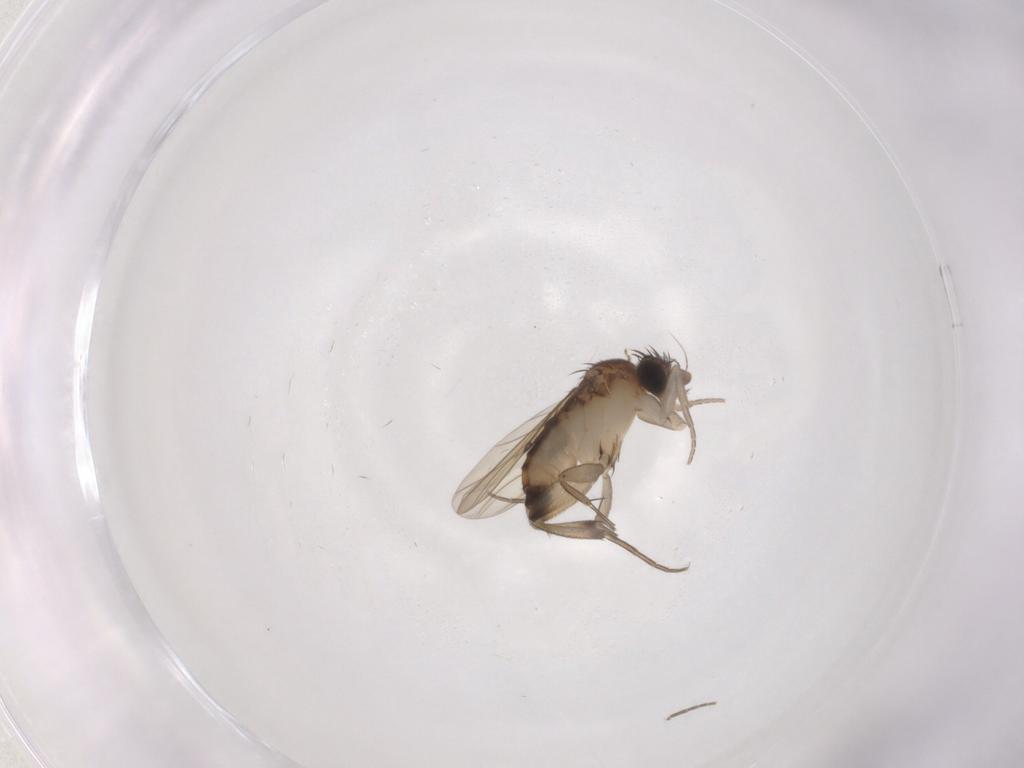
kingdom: Animalia
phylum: Arthropoda
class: Insecta
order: Diptera
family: Phoridae
